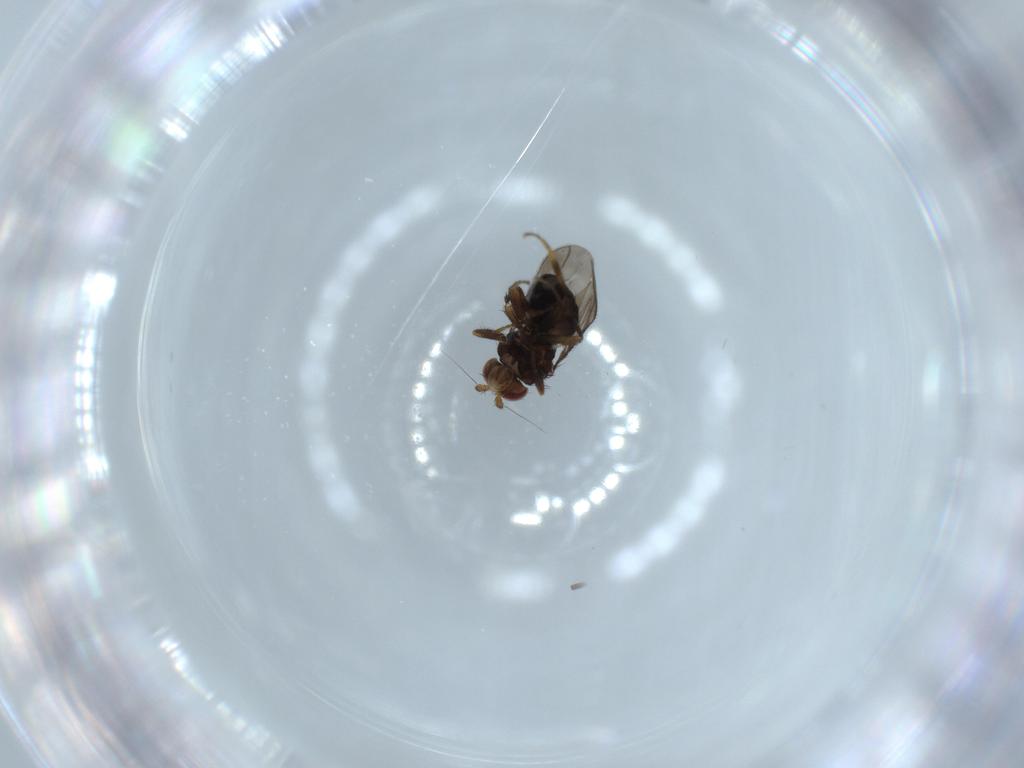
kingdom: Animalia
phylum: Arthropoda
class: Insecta
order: Diptera
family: Sphaeroceridae
